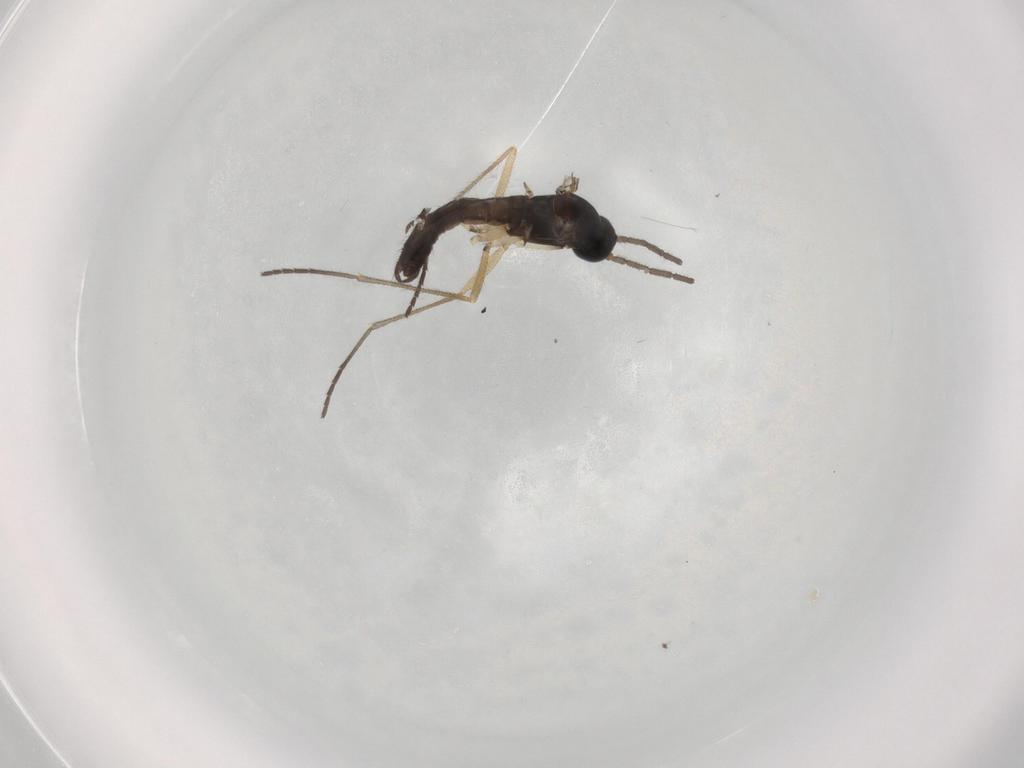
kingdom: Animalia
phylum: Arthropoda
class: Insecta
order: Diptera
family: Sciaridae
